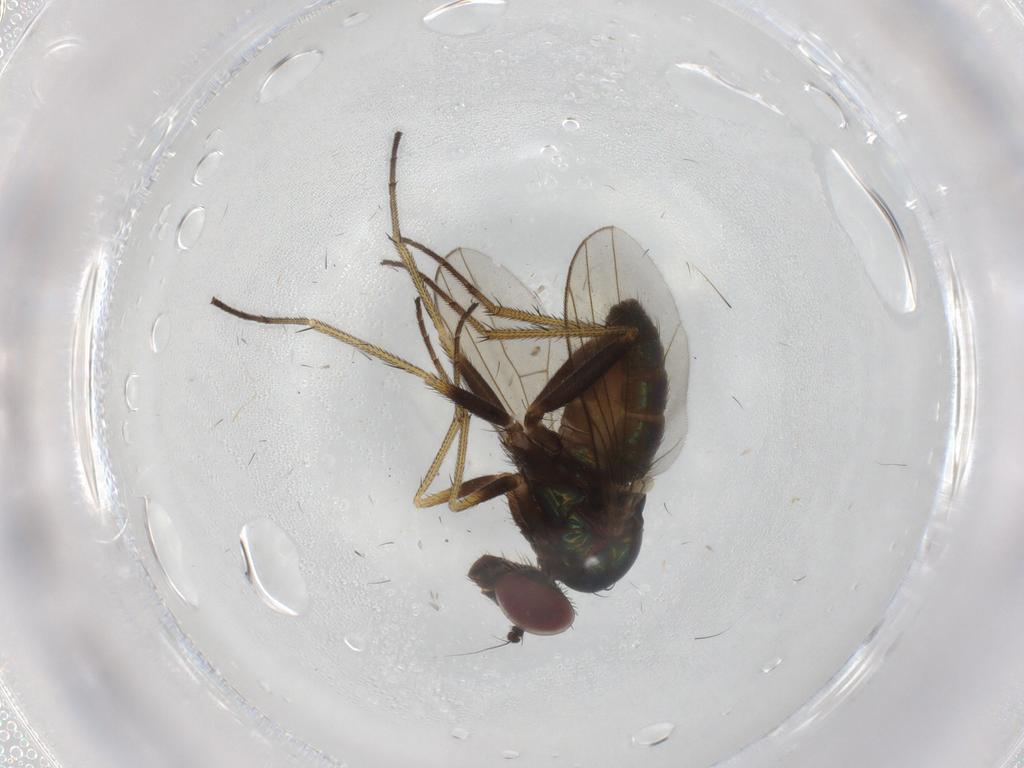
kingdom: Animalia
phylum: Arthropoda
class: Insecta
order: Diptera
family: Dolichopodidae
